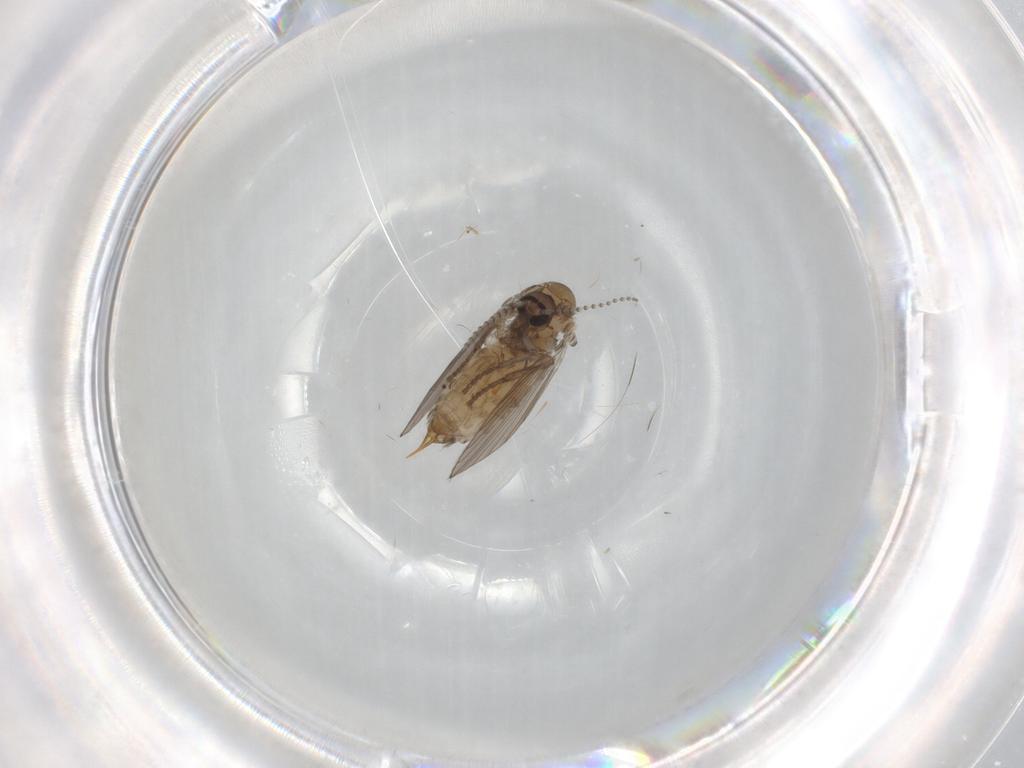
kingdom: Animalia
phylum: Arthropoda
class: Insecta
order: Diptera
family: Psychodidae
